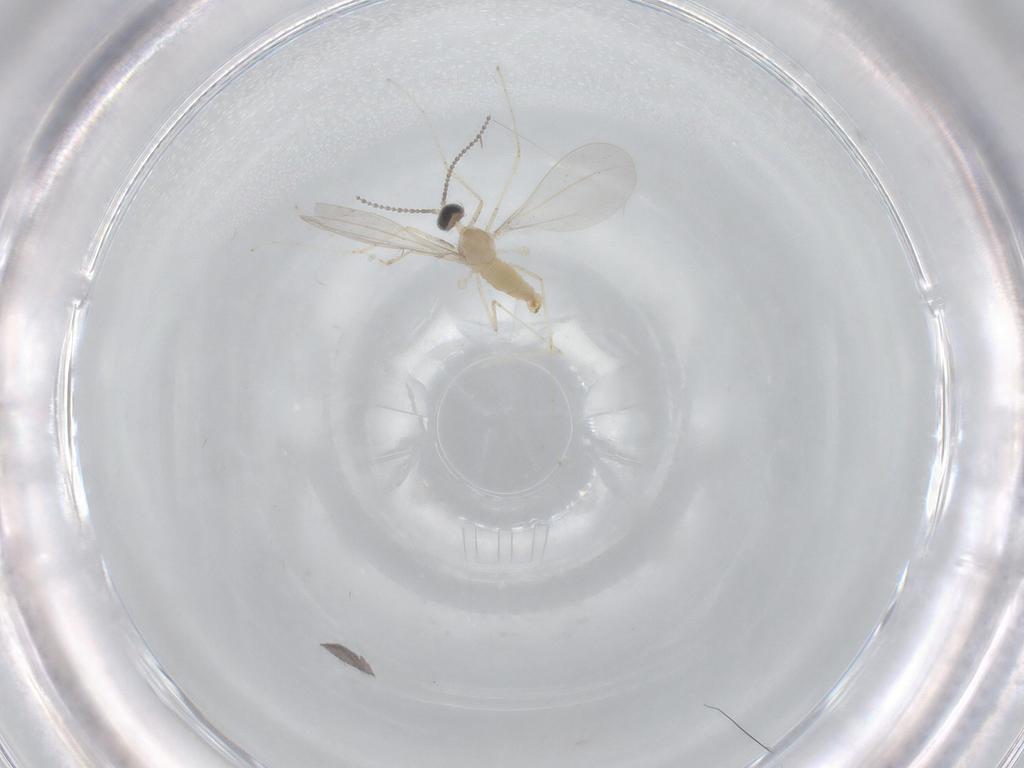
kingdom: Animalia
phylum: Arthropoda
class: Insecta
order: Diptera
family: Cecidomyiidae
